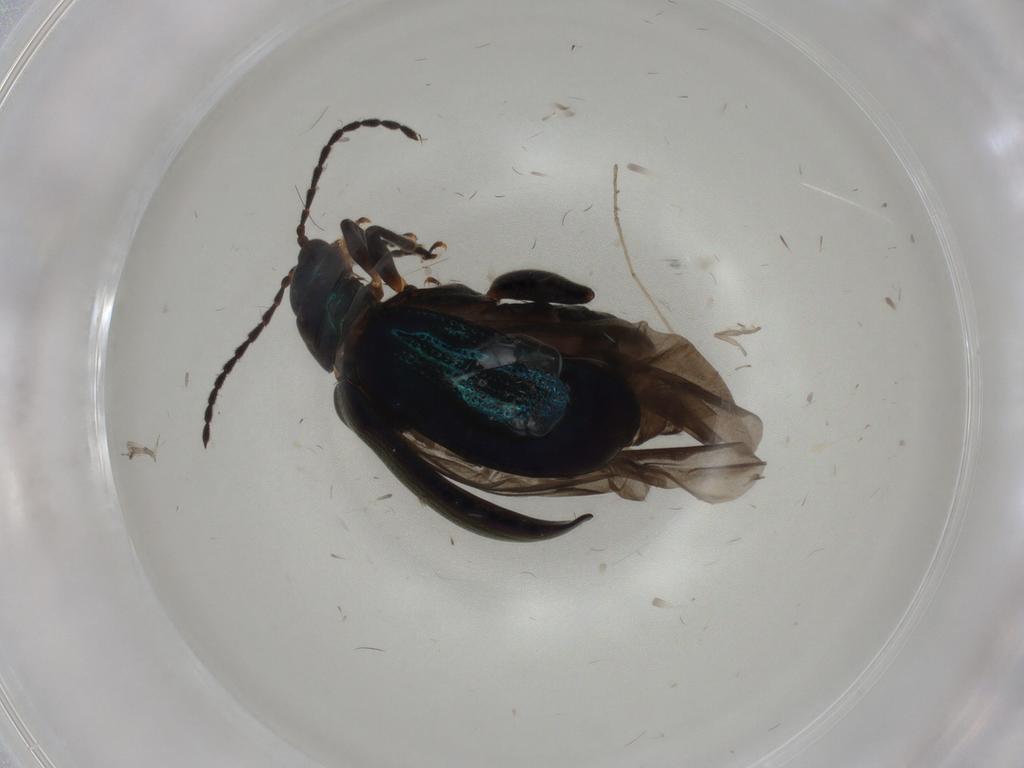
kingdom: Animalia
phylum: Arthropoda
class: Insecta
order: Coleoptera
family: Chrysomelidae
